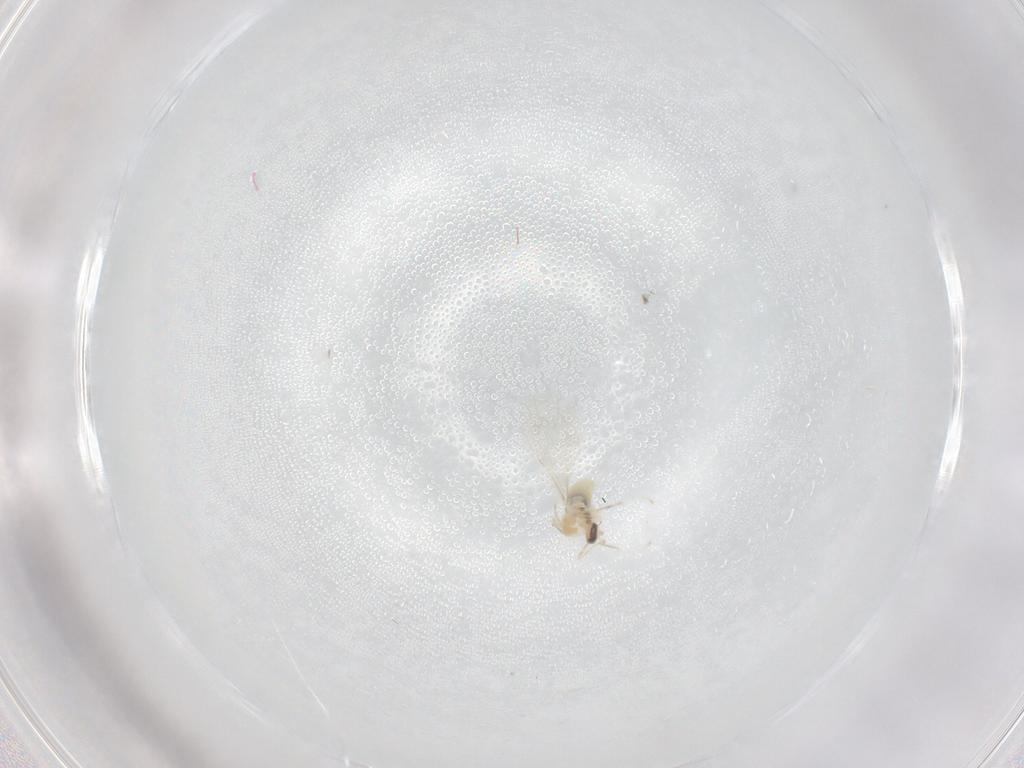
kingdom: Animalia
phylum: Arthropoda
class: Insecta
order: Diptera
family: Cecidomyiidae
